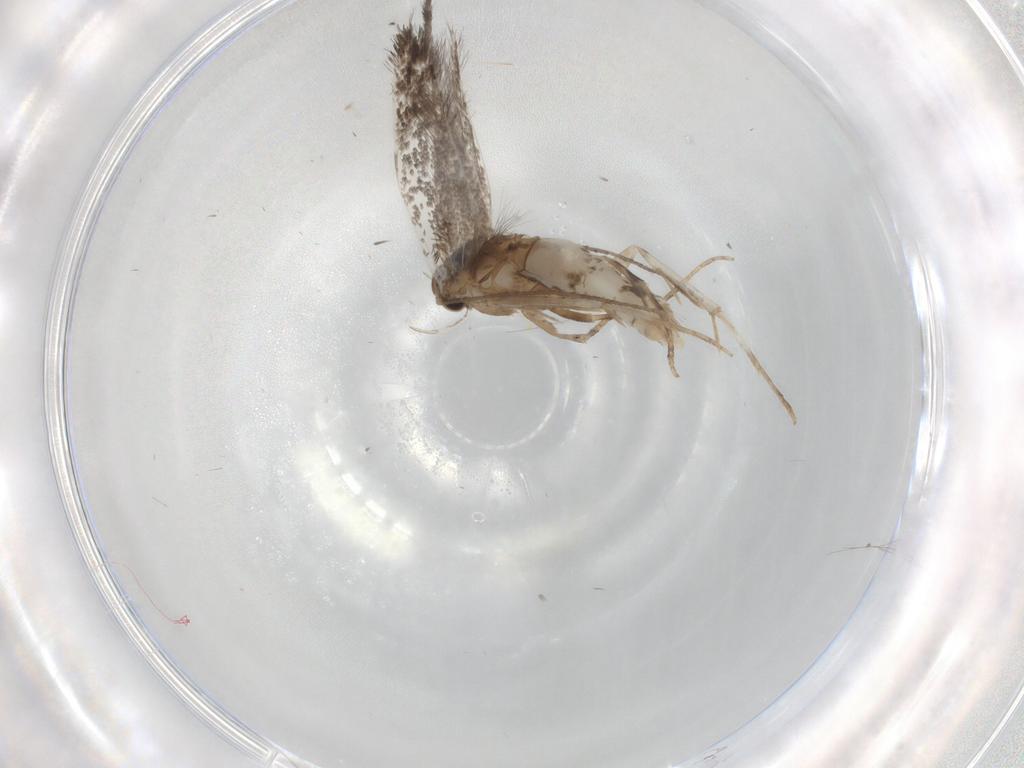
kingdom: Animalia
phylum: Arthropoda
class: Insecta
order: Lepidoptera
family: Elachistidae
